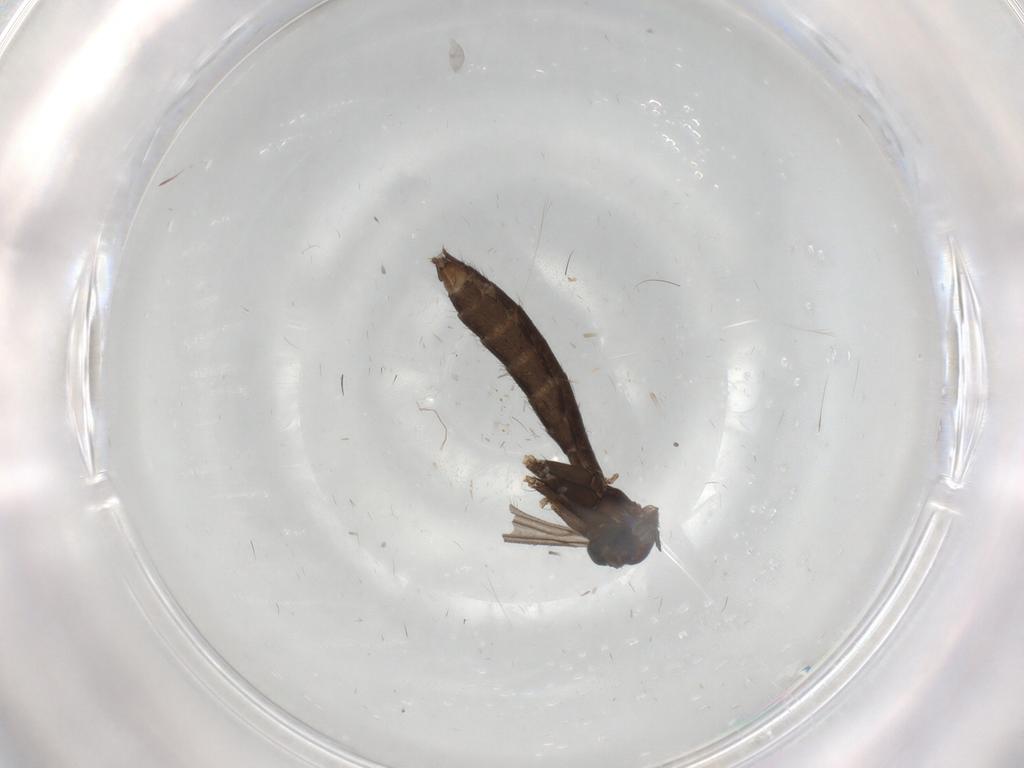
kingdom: Animalia
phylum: Arthropoda
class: Insecta
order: Diptera
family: Keroplatidae
